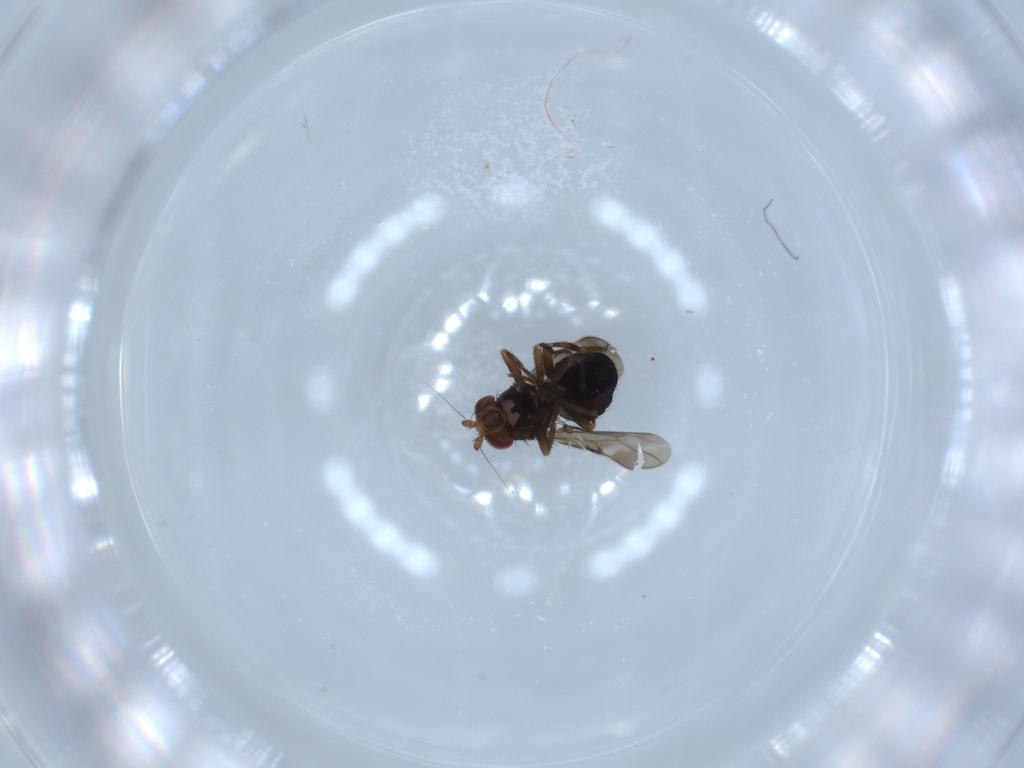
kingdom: Animalia
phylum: Arthropoda
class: Insecta
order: Diptera
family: Sphaeroceridae
